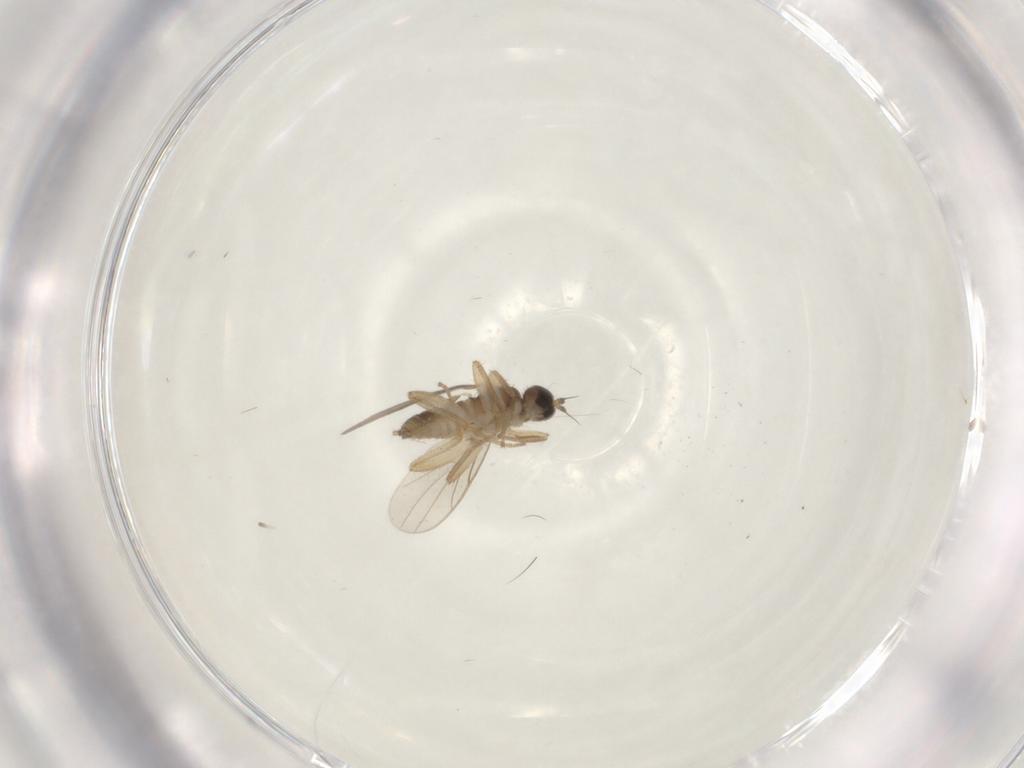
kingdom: Animalia
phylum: Arthropoda
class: Insecta
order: Diptera
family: Hybotidae
